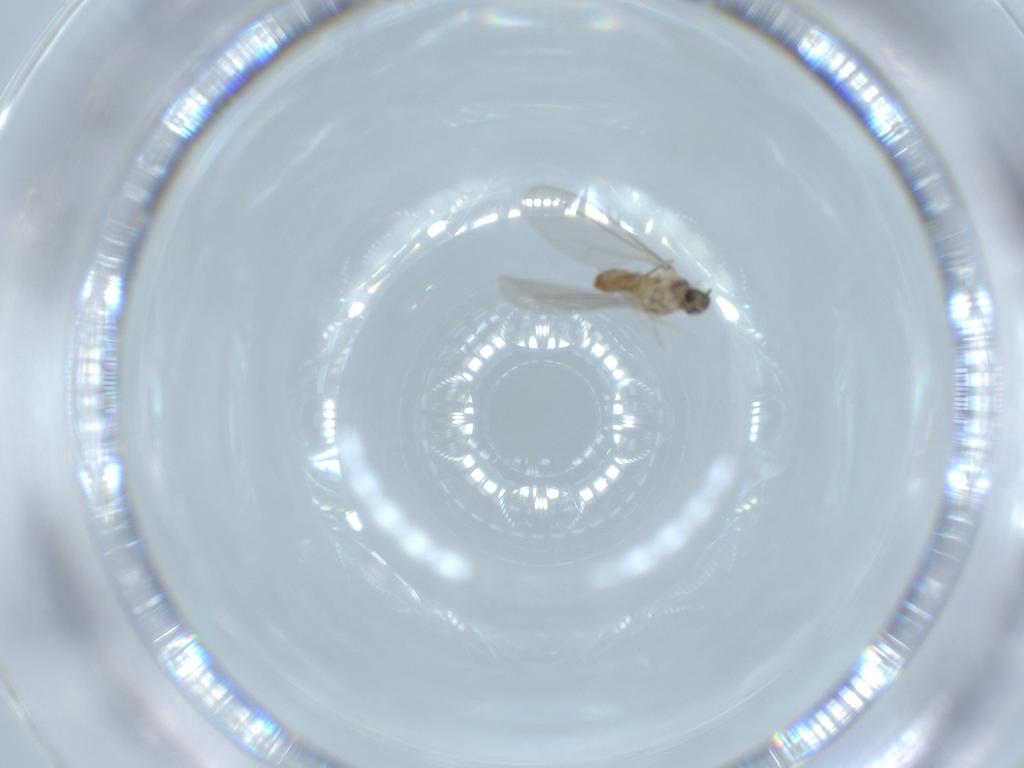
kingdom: Animalia
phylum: Arthropoda
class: Insecta
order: Diptera
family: Cecidomyiidae
